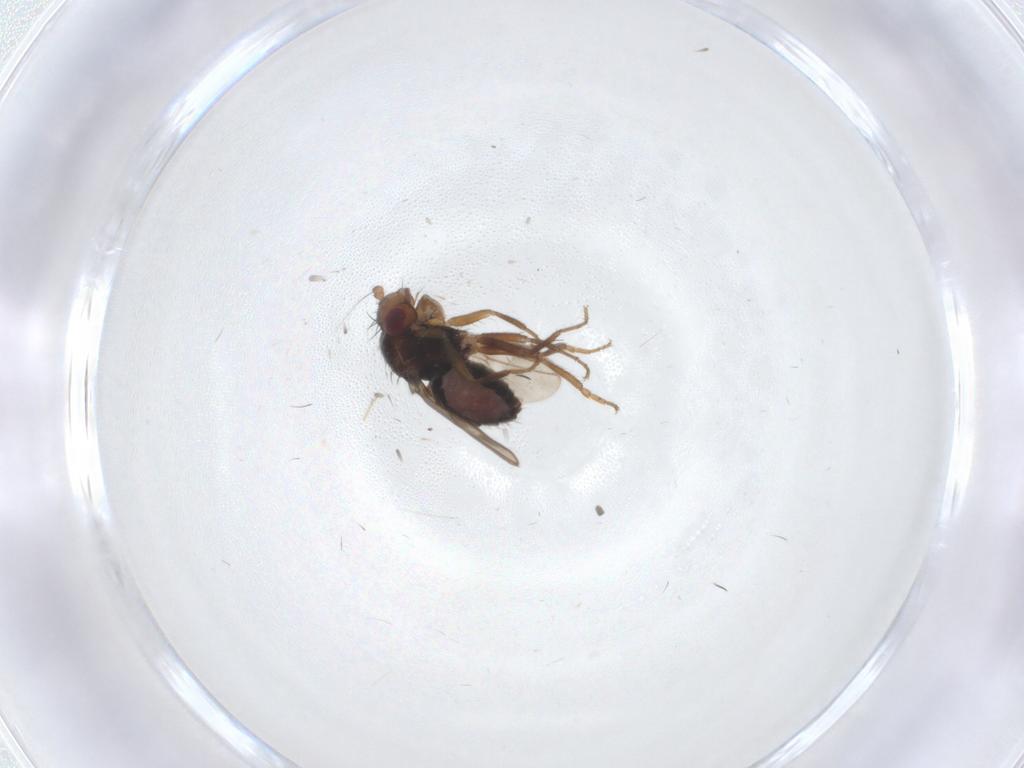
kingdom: Animalia
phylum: Arthropoda
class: Insecta
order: Diptera
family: Sphaeroceridae
